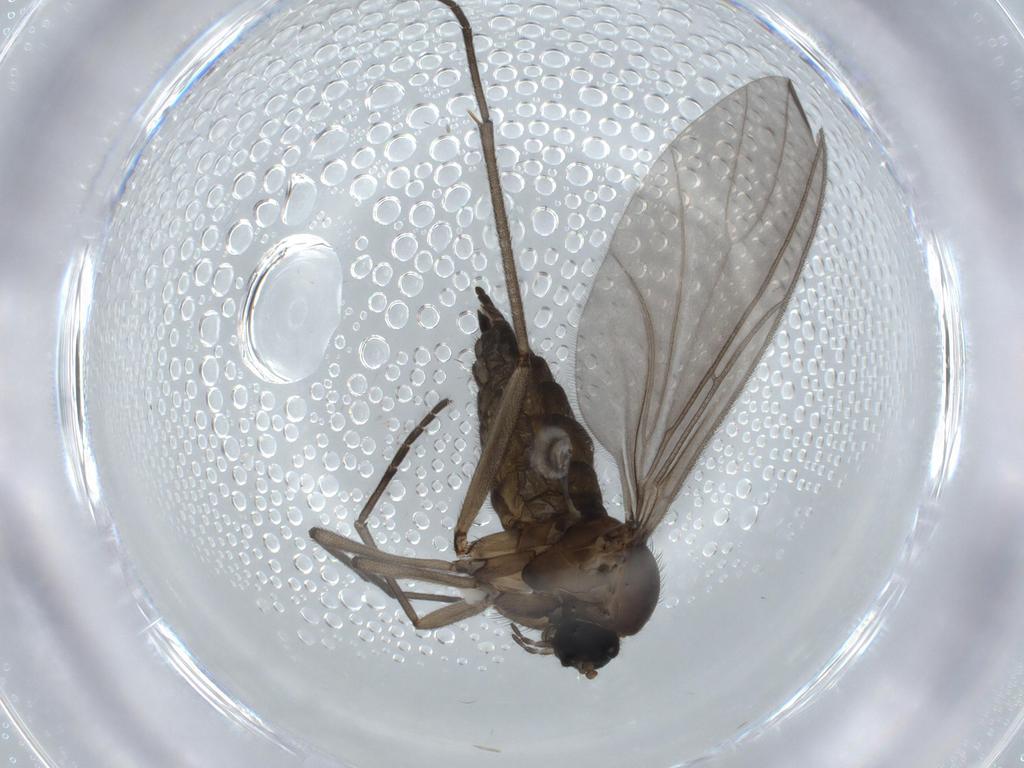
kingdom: Animalia
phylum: Arthropoda
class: Insecta
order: Diptera
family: Sciaridae
